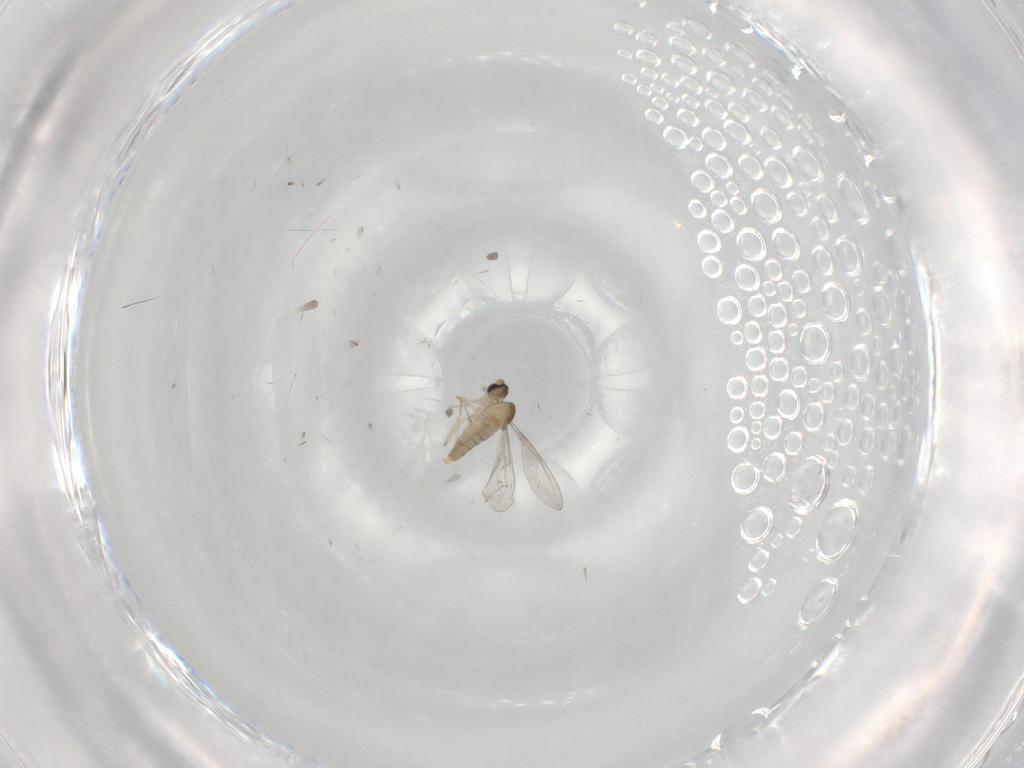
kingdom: Animalia
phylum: Arthropoda
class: Insecta
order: Diptera
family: Cecidomyiidae
